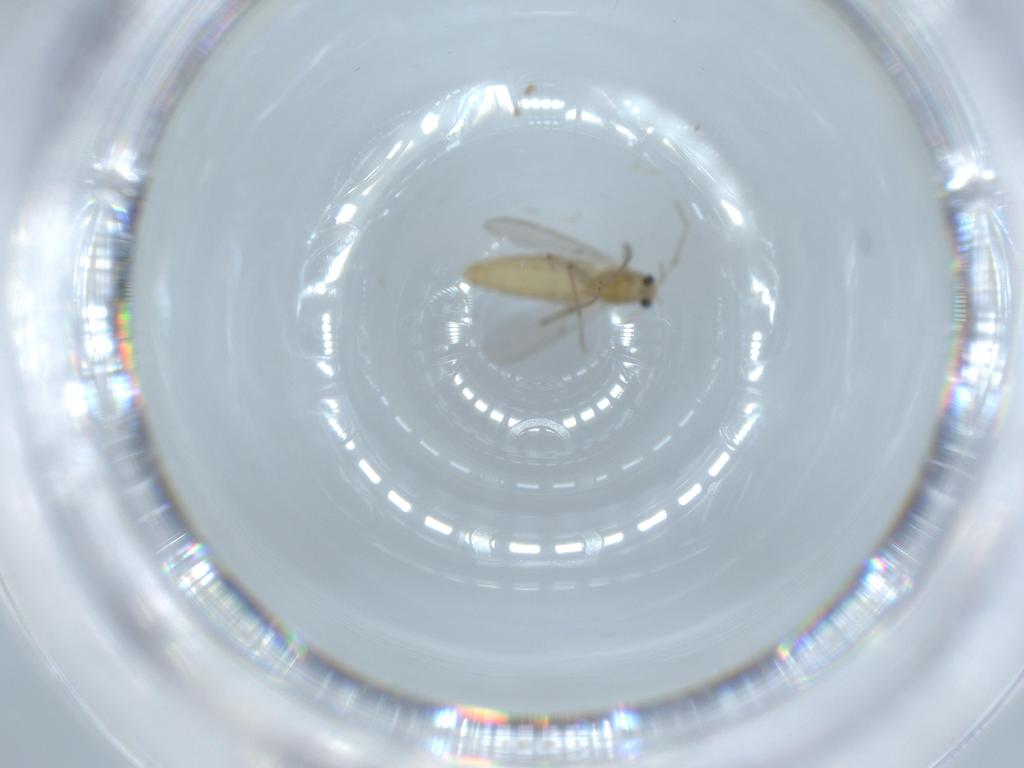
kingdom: Animalia
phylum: Arthropoda
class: Insecta
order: Diptera
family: Chironomidae
